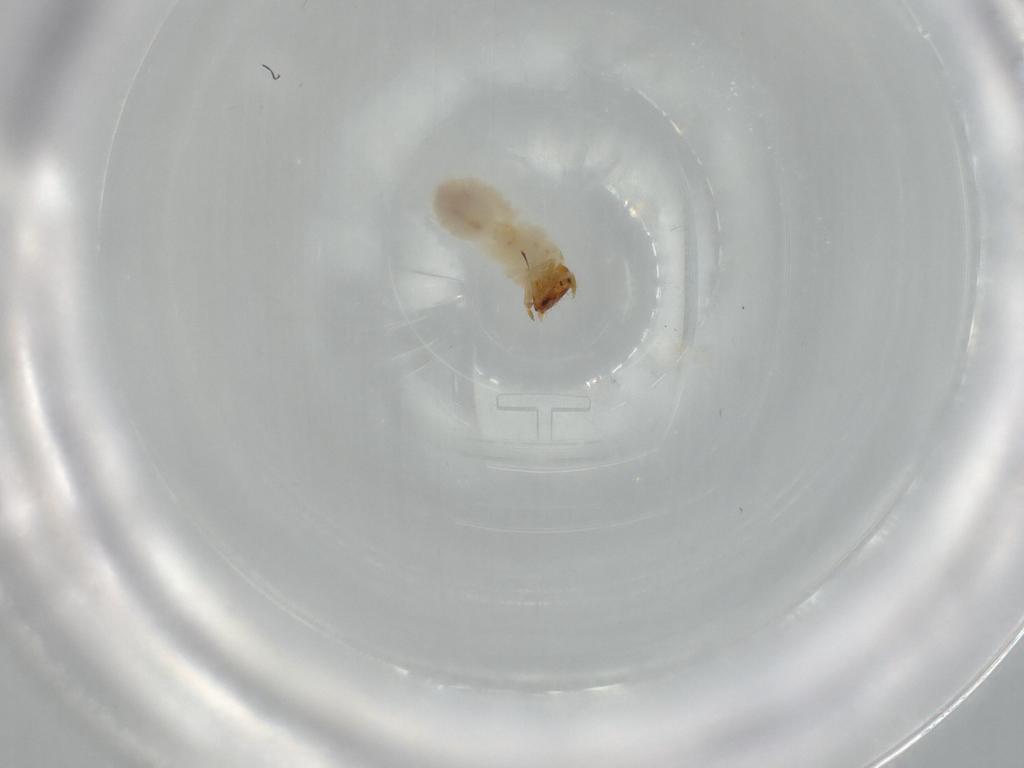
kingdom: Animalia
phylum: Arthropoda
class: Insecta
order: Coleoptera
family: Chrysomelidae
